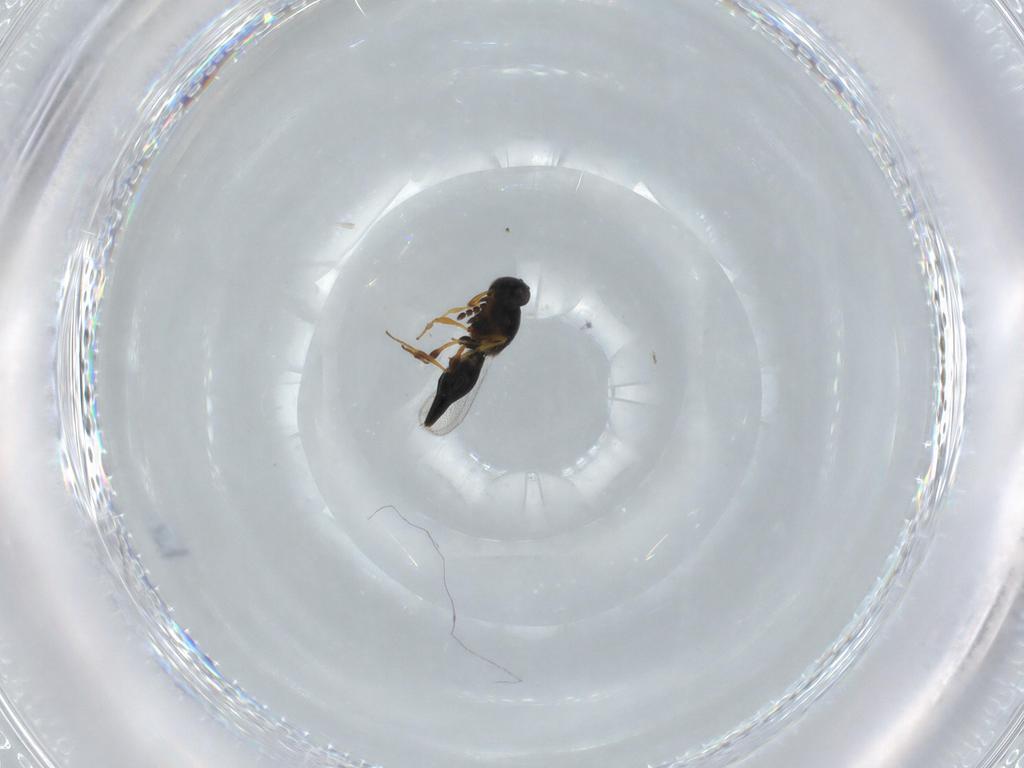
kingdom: Animalia
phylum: Arthropoda
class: Insecta
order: Hymenoptera
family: Platygastridae
